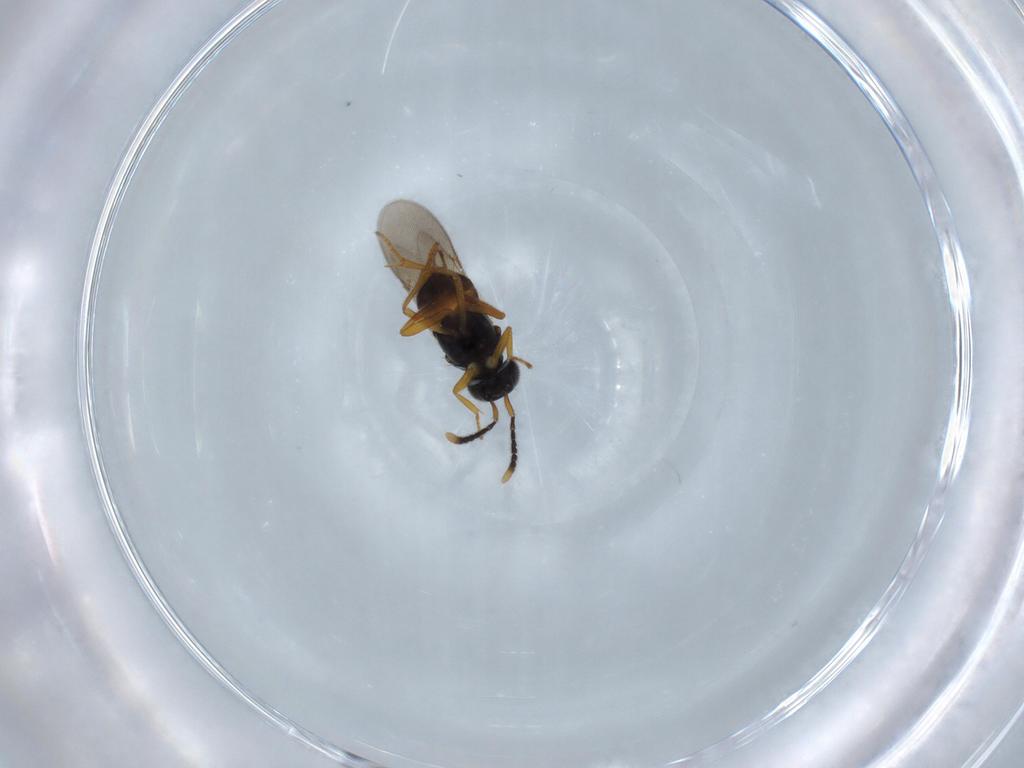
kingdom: Animalia
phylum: Arthropoda
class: Insecta
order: Hymenoptera
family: Encyrtidae
